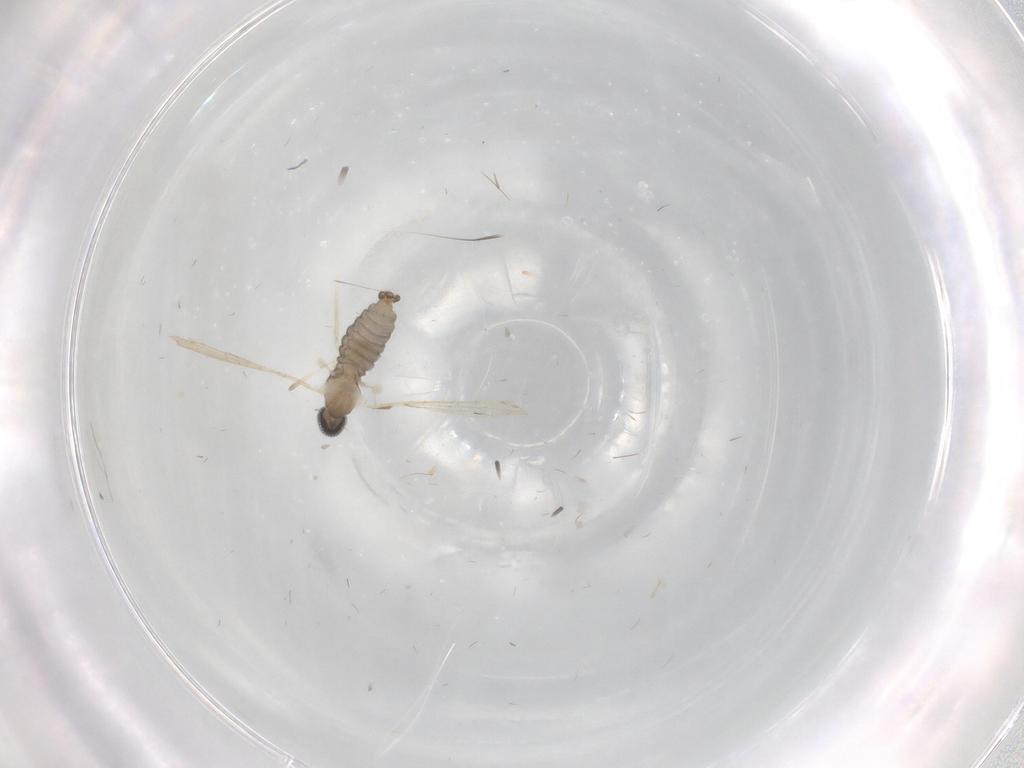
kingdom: Animalia
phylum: Arthropoda
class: Insecta
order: Diptera
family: Cecidomyiidae
